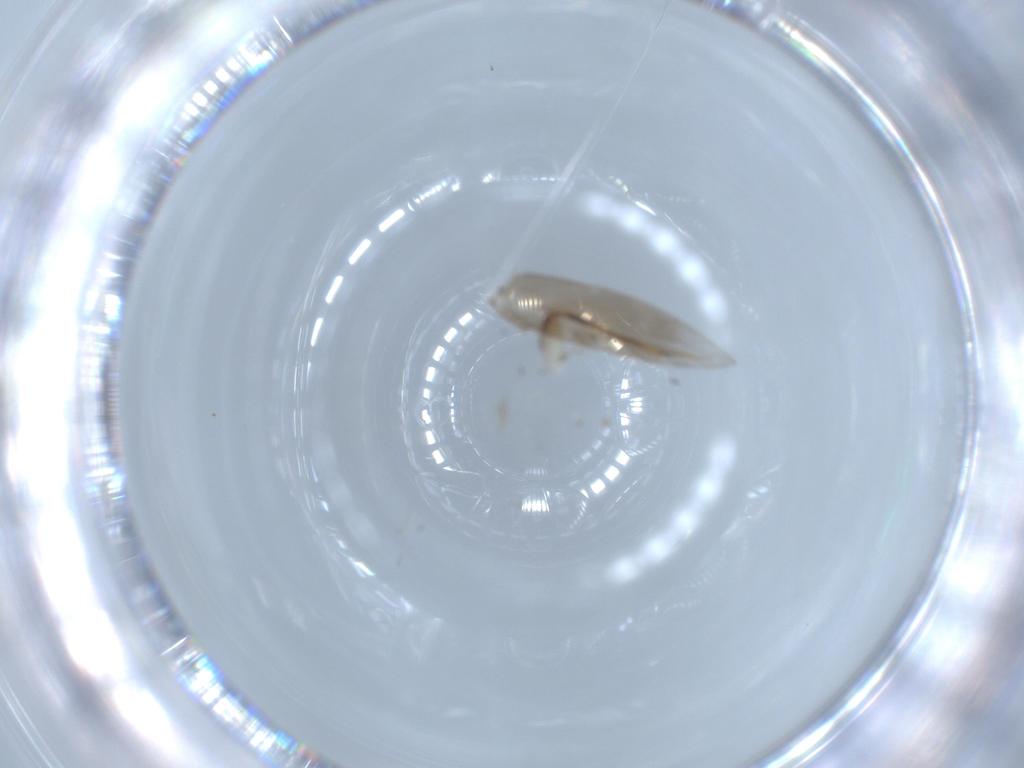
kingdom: Animalia
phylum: Arthropoda
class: Insecta
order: Psocodea
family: Lepidopsocidae
